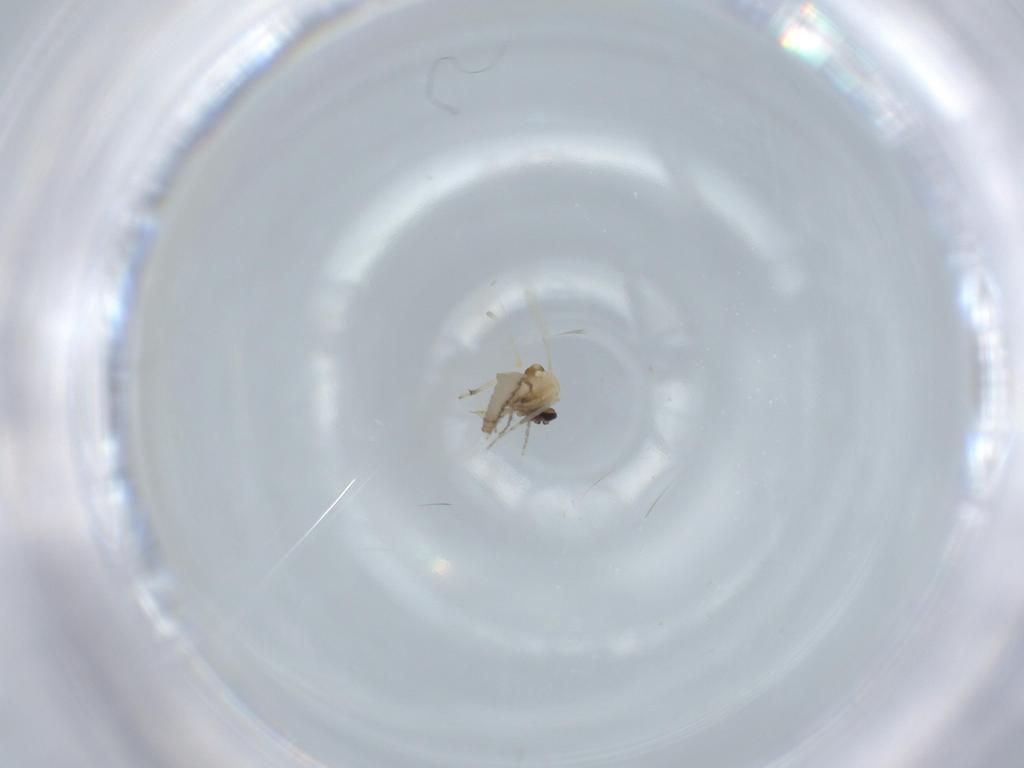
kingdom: Animalia
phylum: Arthropoda
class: Insecta
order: Diptera
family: Ceratopogonidae
